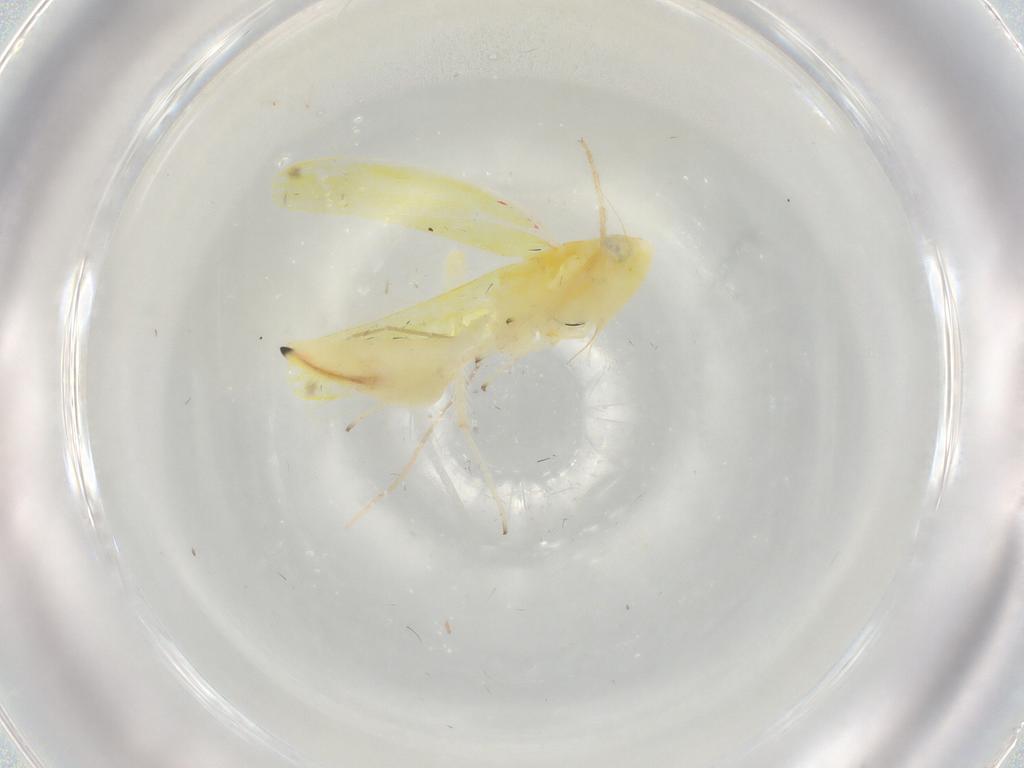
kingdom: Animalia
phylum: Arthropoda
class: Insecta
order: Hemiptera
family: Cicadellidae
